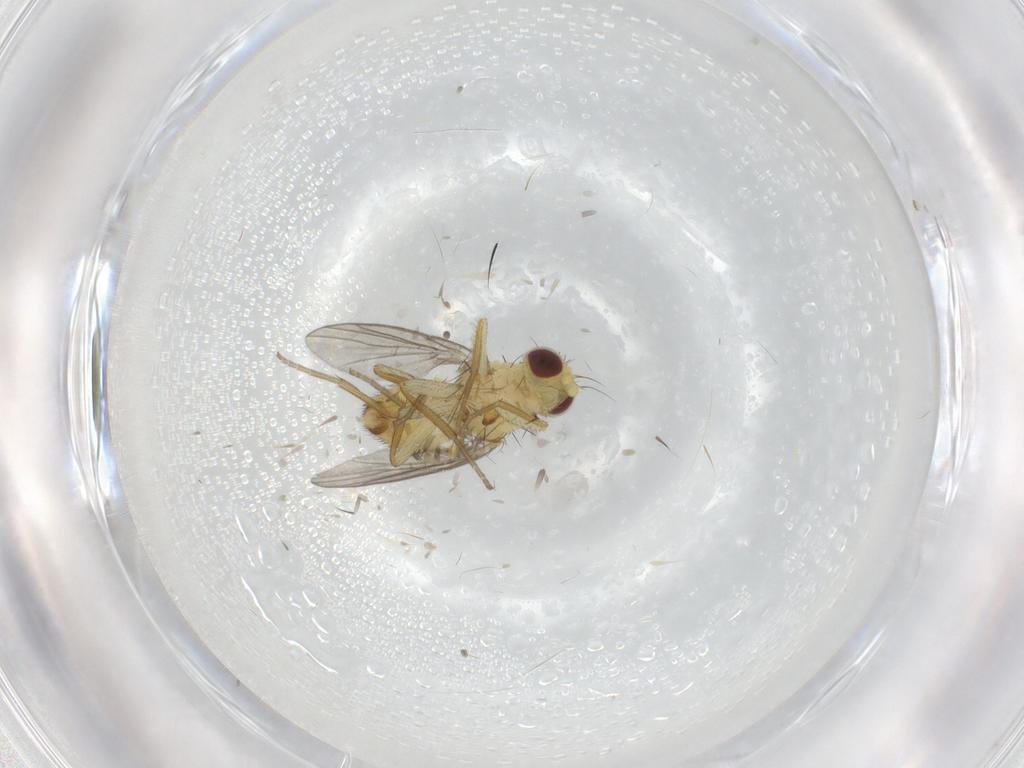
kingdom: Animalia
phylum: Arthropoda
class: Insecta
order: Diptera
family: Agromyzidae
